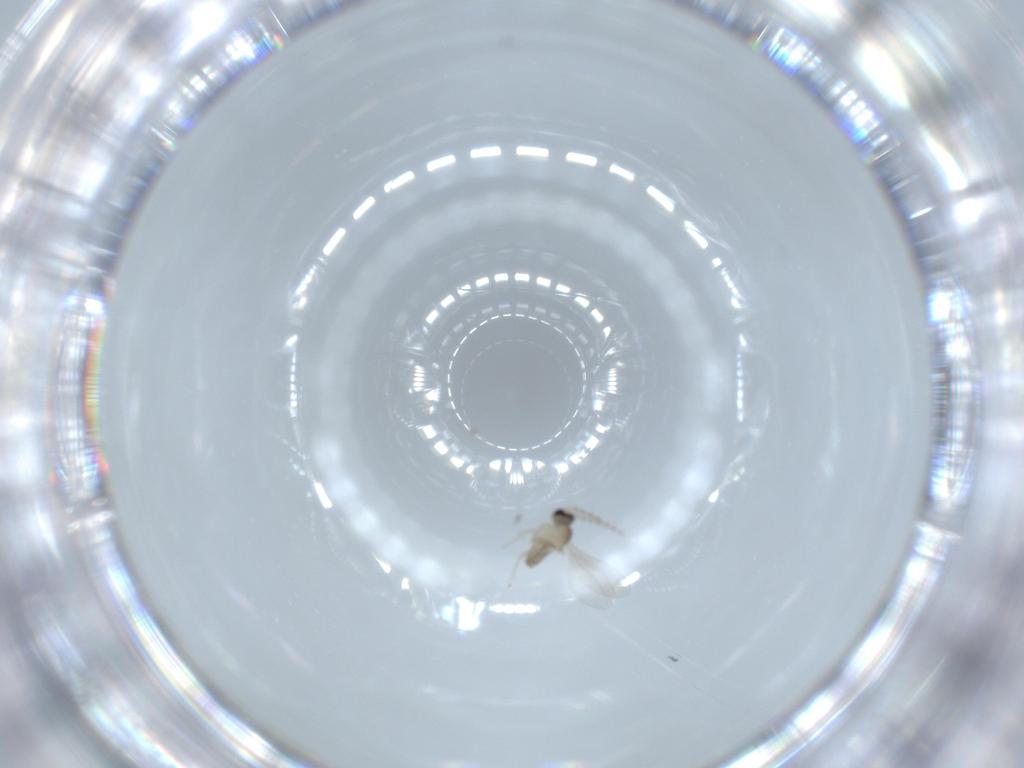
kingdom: Animalia
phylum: Arthropoda
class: Insecta
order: Diptera
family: Cecidomyiidae
